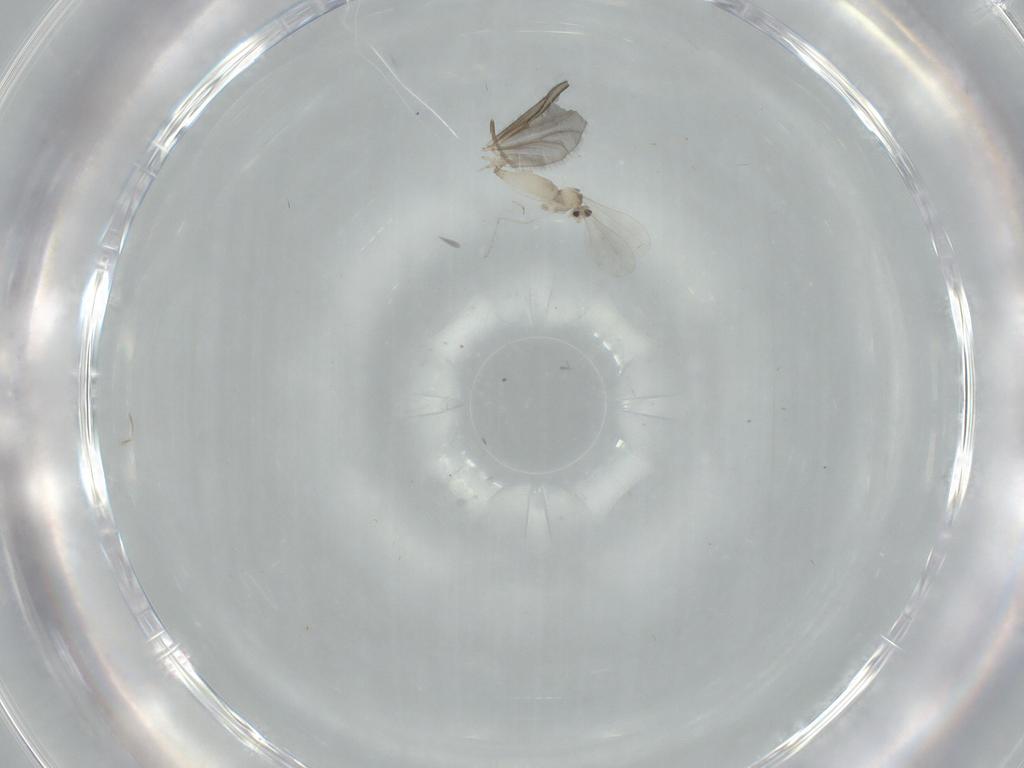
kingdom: Animalia
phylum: Arthropoda
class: Insecta
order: Diptera
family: Cecidomyiidae
